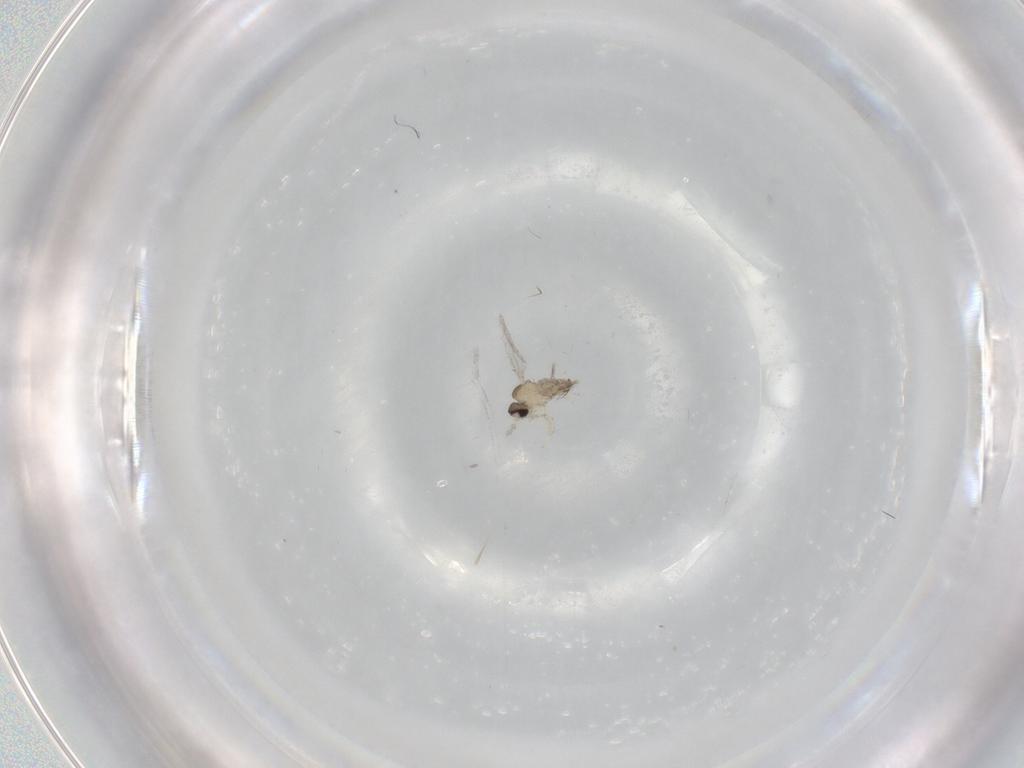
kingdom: Animalia
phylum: Arthropoda
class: Insecta
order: Diptera
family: Cecidomyiidae
